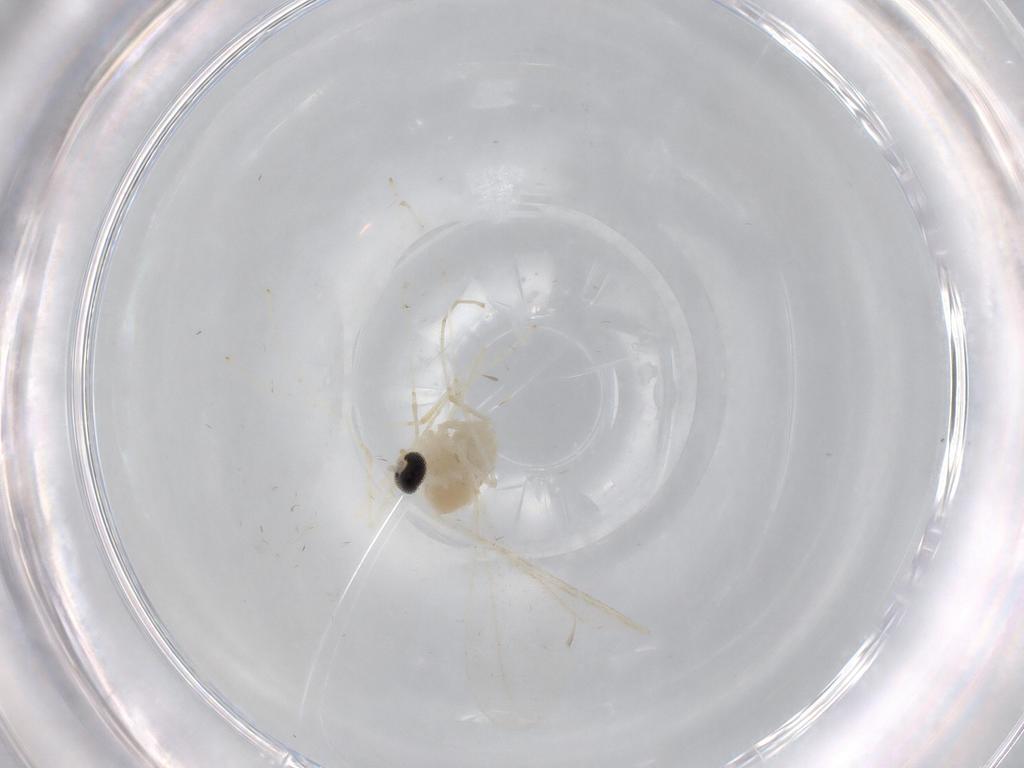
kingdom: Animalia
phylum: Arthropoda
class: Insecta
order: Diptera
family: Cecidomyiidae
